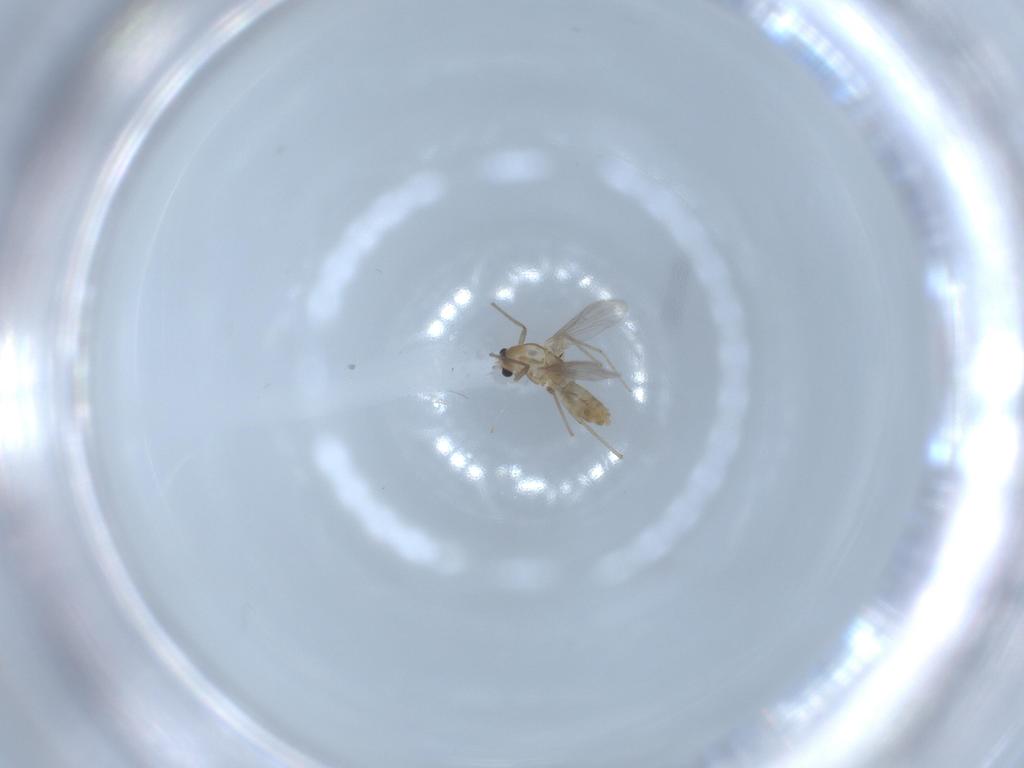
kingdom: Animalia
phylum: Arthropoda
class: Insecta
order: Diptera
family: Chironomidae
